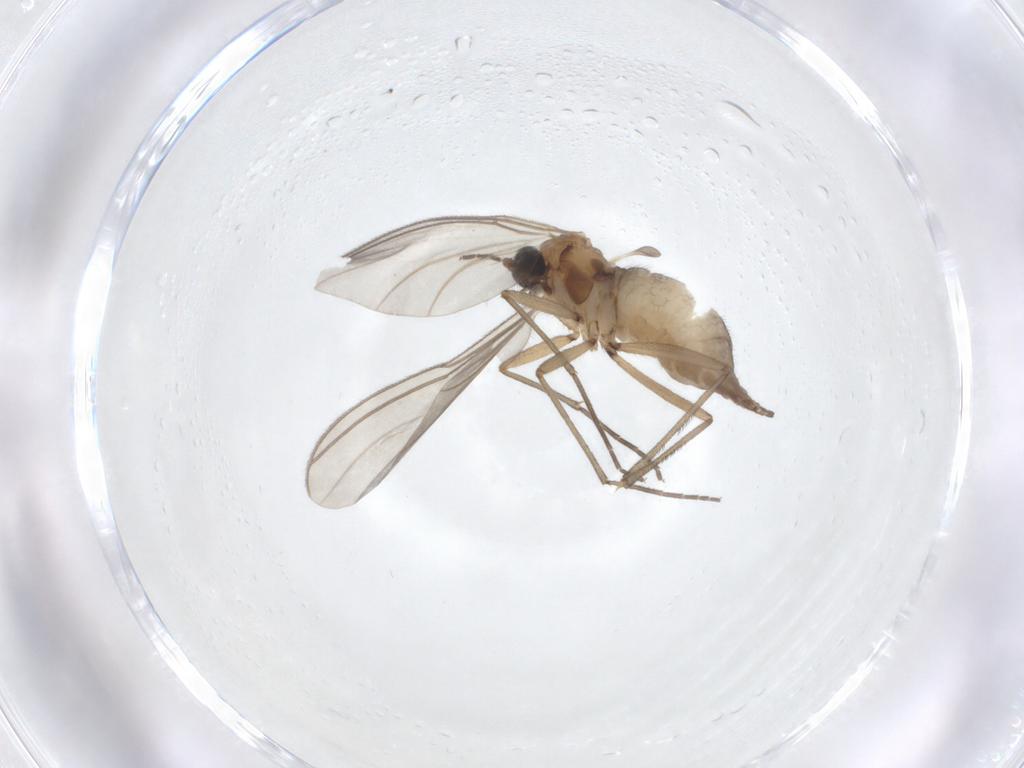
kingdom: Animalia
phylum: Arthropoda
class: Insecta
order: Diptera
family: Sciaridae
